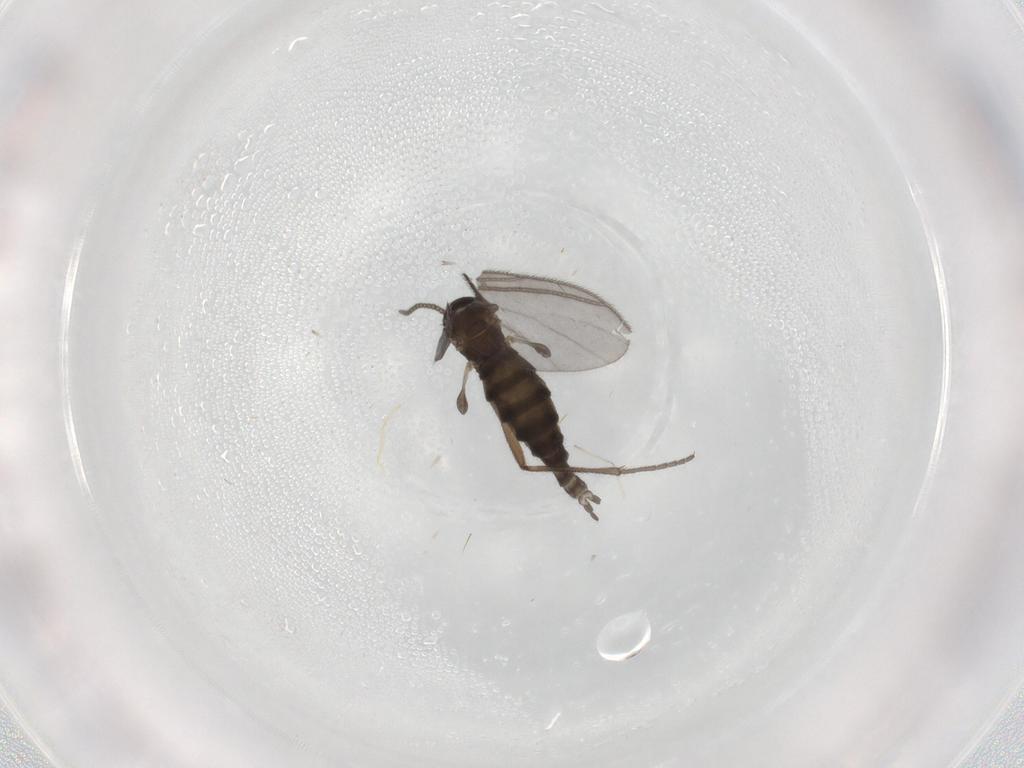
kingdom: Animalia
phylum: Arthropoda
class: Insecta
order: Diptera
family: Sciaridae
